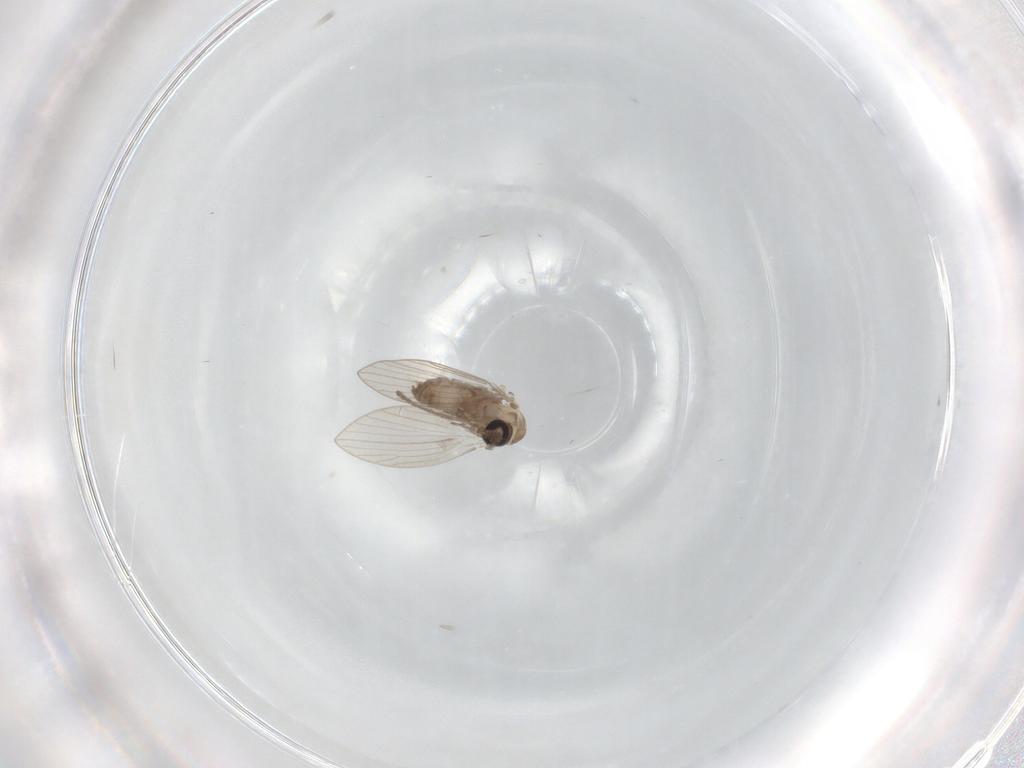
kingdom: Animalia
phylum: Arthropoda
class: Insecta
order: Diptera
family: Psychodidae
